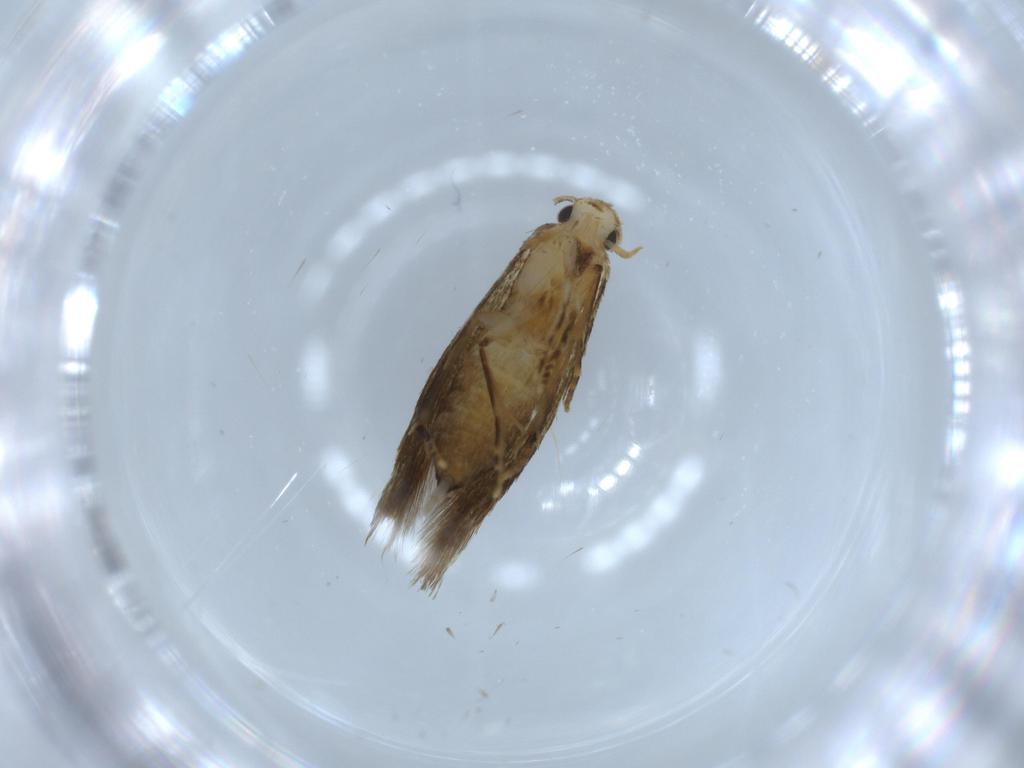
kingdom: Animalia
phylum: Arthropoda
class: Insecta
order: Lepidoptera
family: Tineidae
